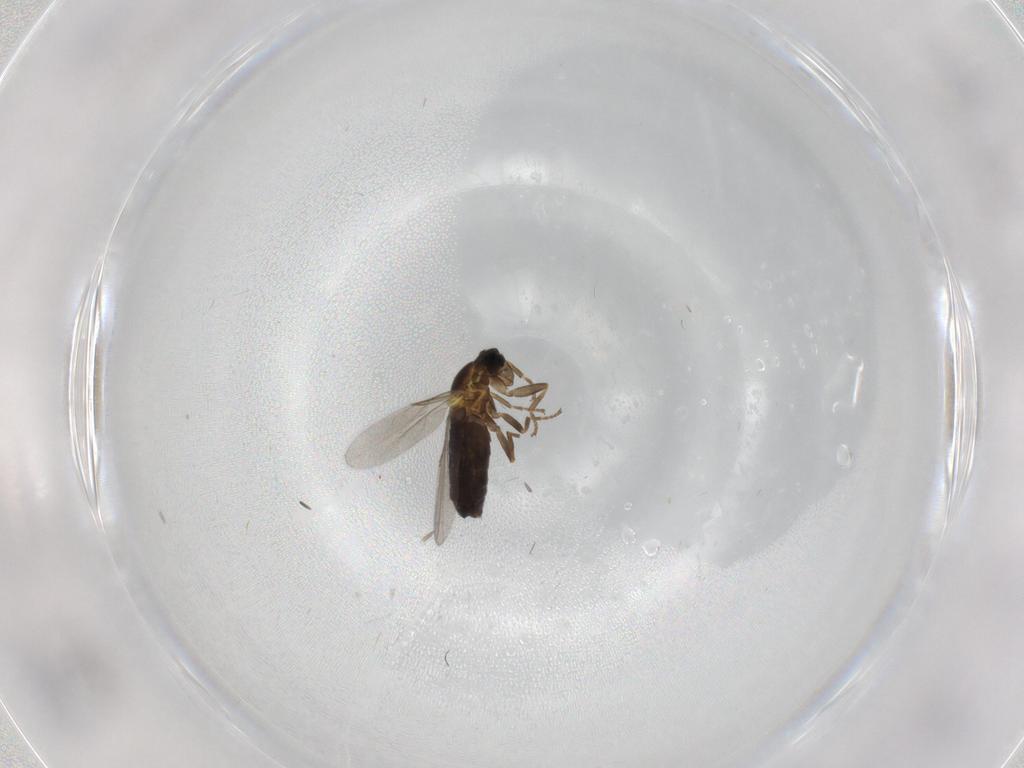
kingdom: Animalia
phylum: Arthropoda
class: Insecta
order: Diptera
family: Scatopsidae
